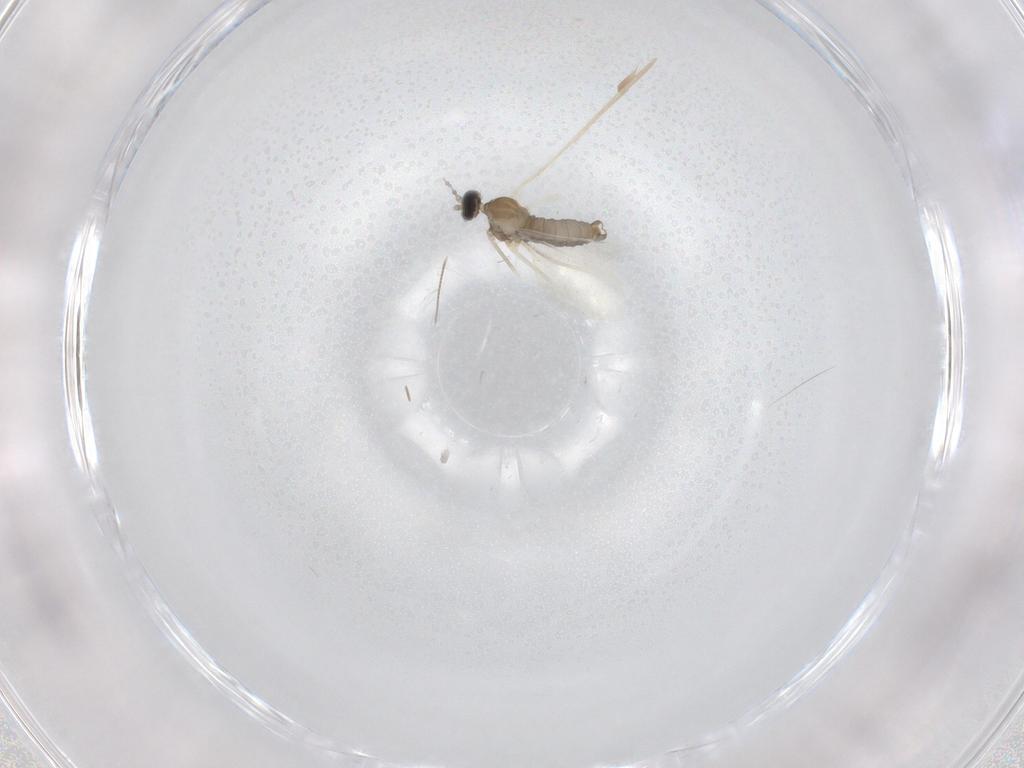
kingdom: Animalia
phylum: Arthropoda
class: Insecta
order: Diptera
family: Cecidomyiidae
